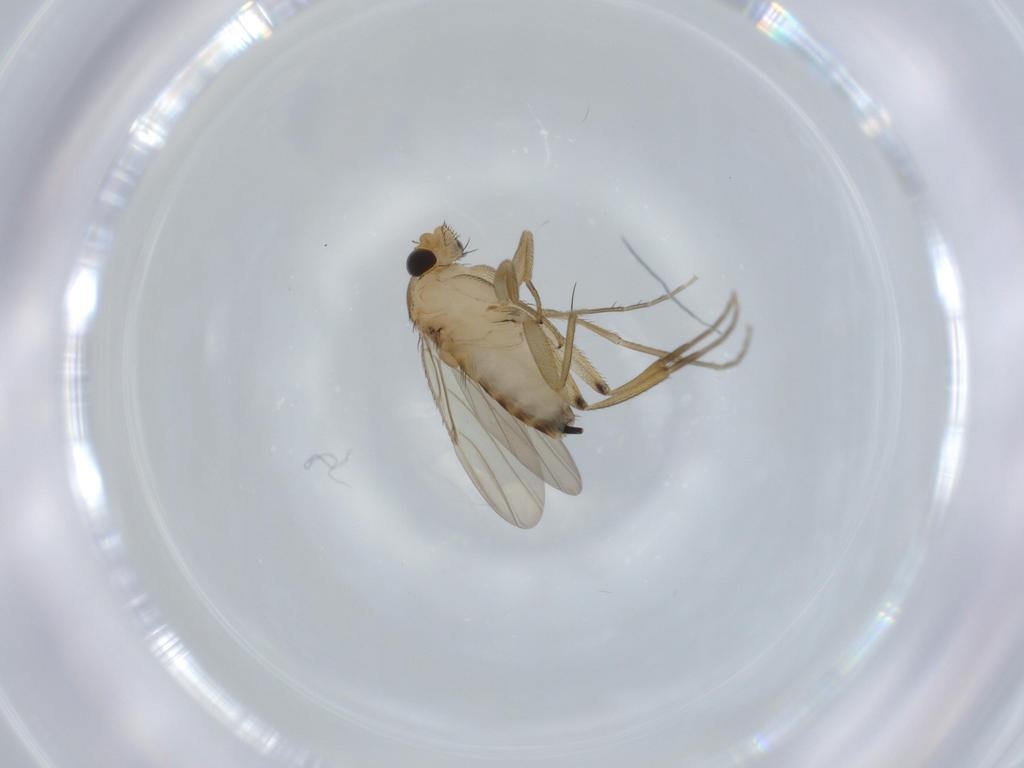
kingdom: Animalia
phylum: Arthropoda
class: Insecta
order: Diptera
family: Phoridae
